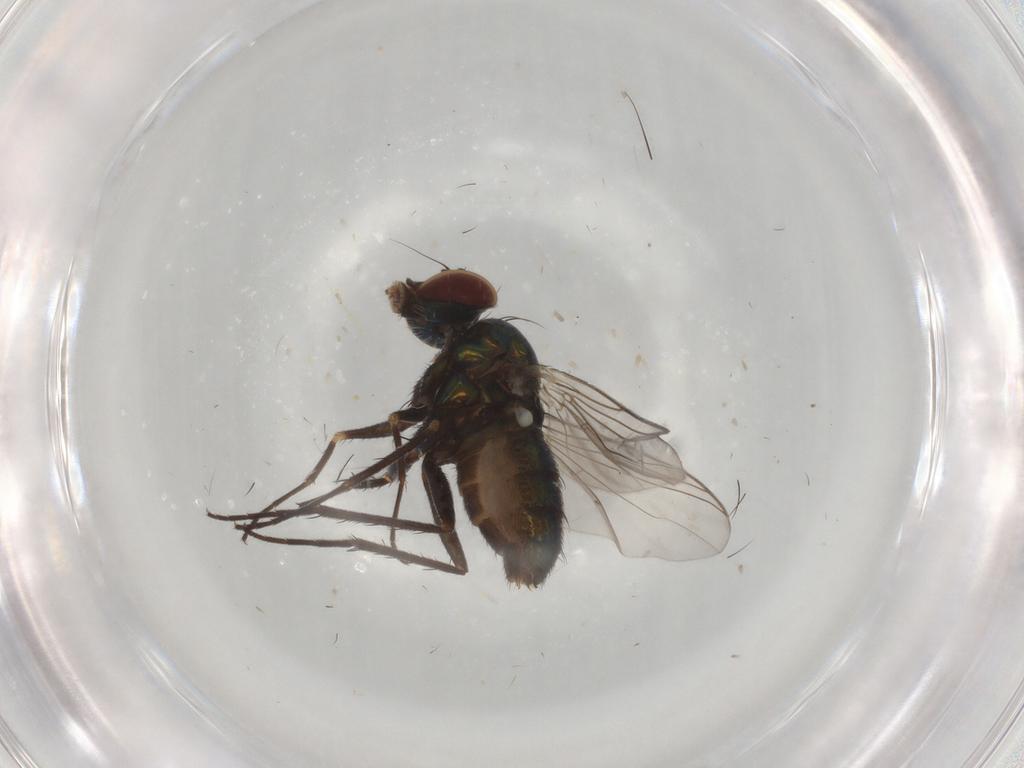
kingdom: Animalia
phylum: Arthropoda
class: Insecta
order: Diptera
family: Dolichopodidae
